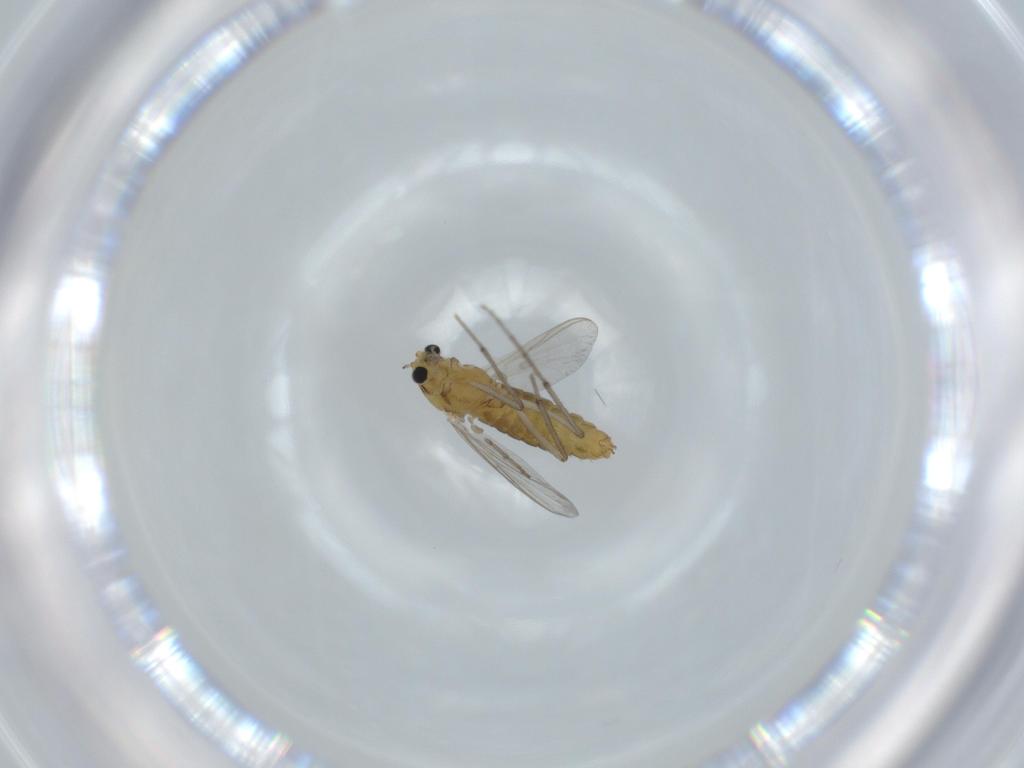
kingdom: Animalia
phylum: Arthropoda
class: Insecta
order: Diptera
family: Chironomidae
